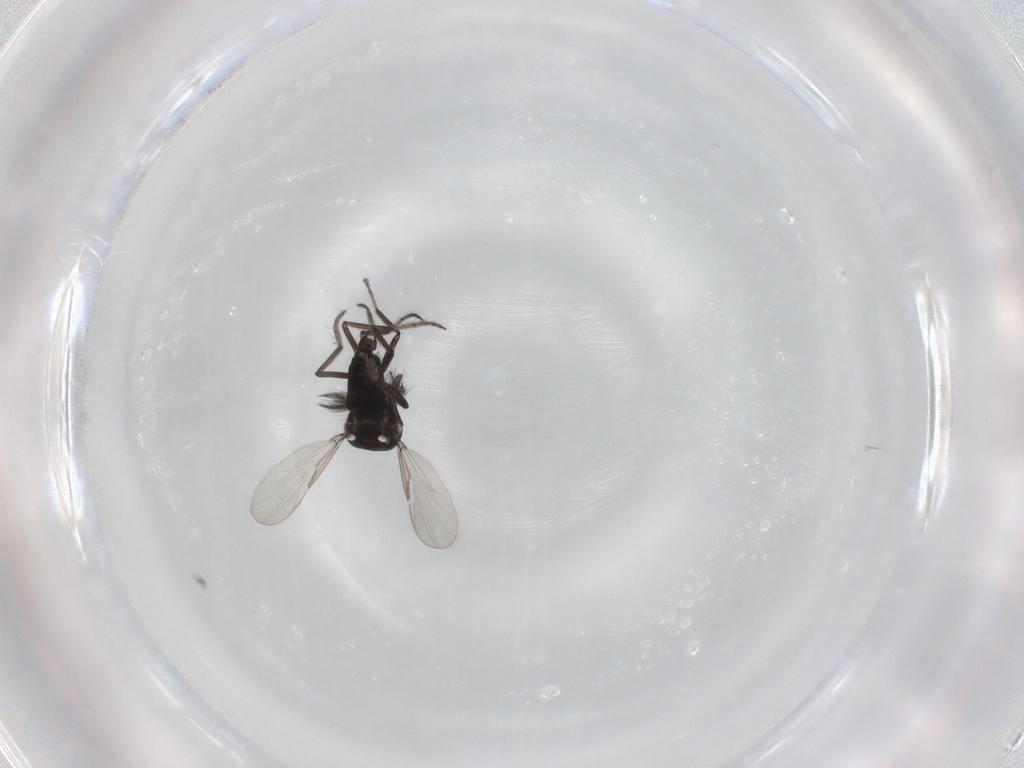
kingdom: Animalia
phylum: Arthropoda
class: Insecta
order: Diptera
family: Ceratopogonidae
